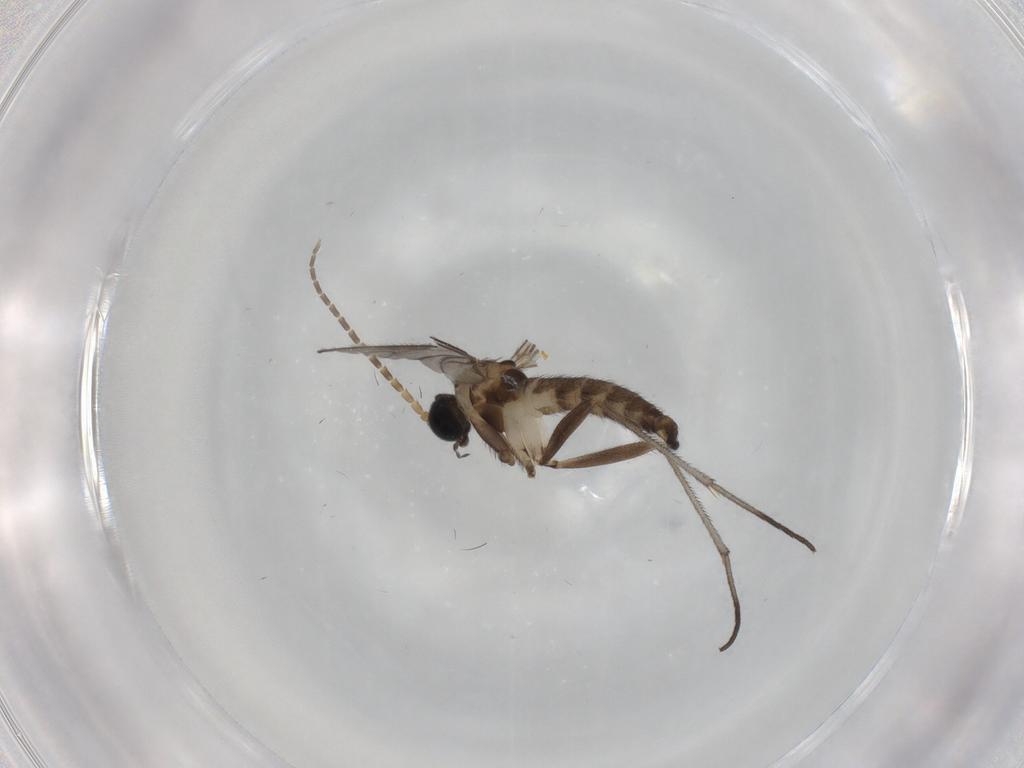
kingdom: Animalia
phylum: Arthropoda
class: Insecta
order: Diptera
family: Sciaridae
